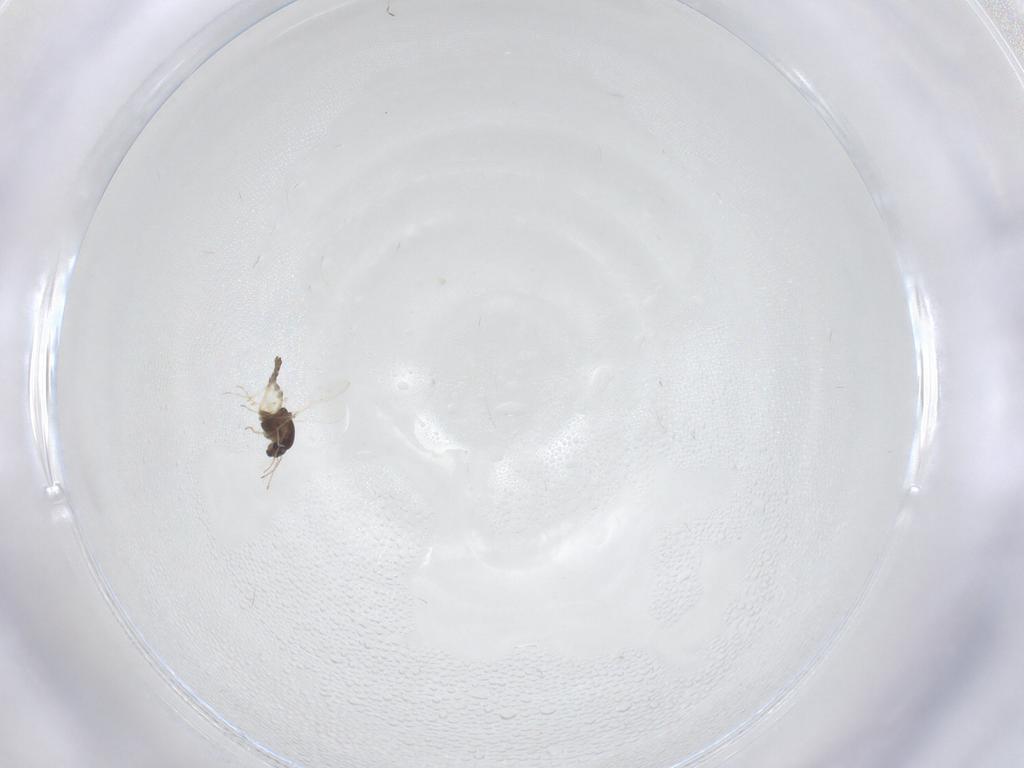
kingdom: Animalia
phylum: Arthropoda
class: Insecta
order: Diptera
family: Chironomidae
